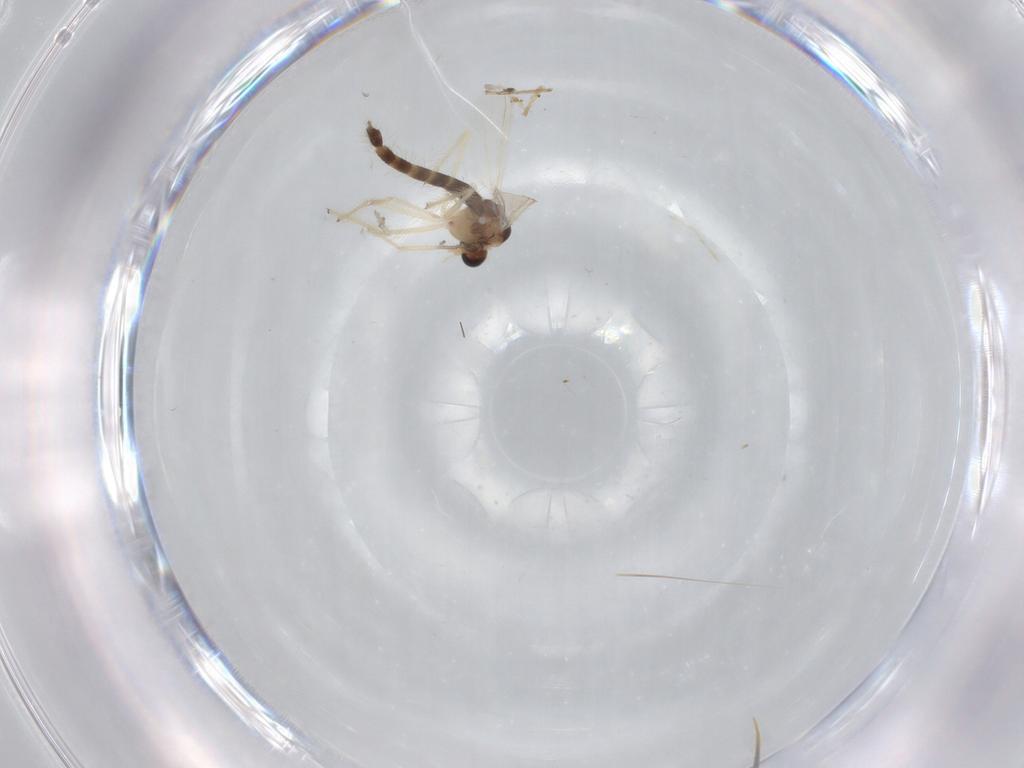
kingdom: Animalia
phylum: Arthropoda
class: Insecta
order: Diptera
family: Chironomidae
